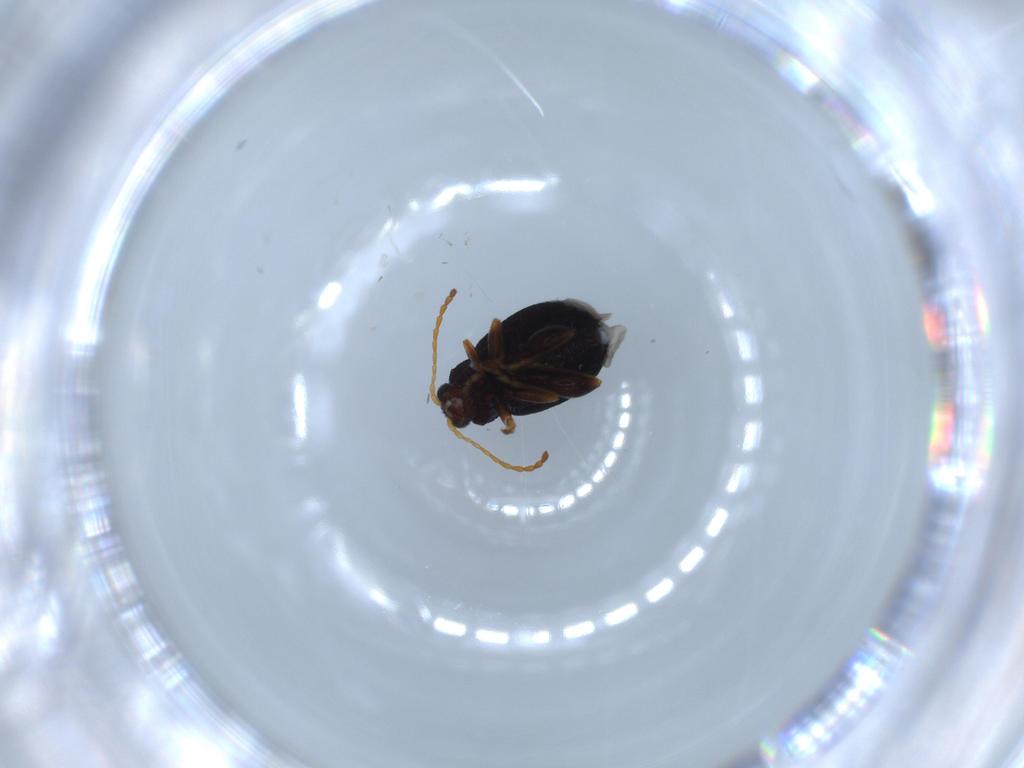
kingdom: Animalia
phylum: Arthropoda
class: Insecta
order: Coleoptera
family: Chrysomelidae
